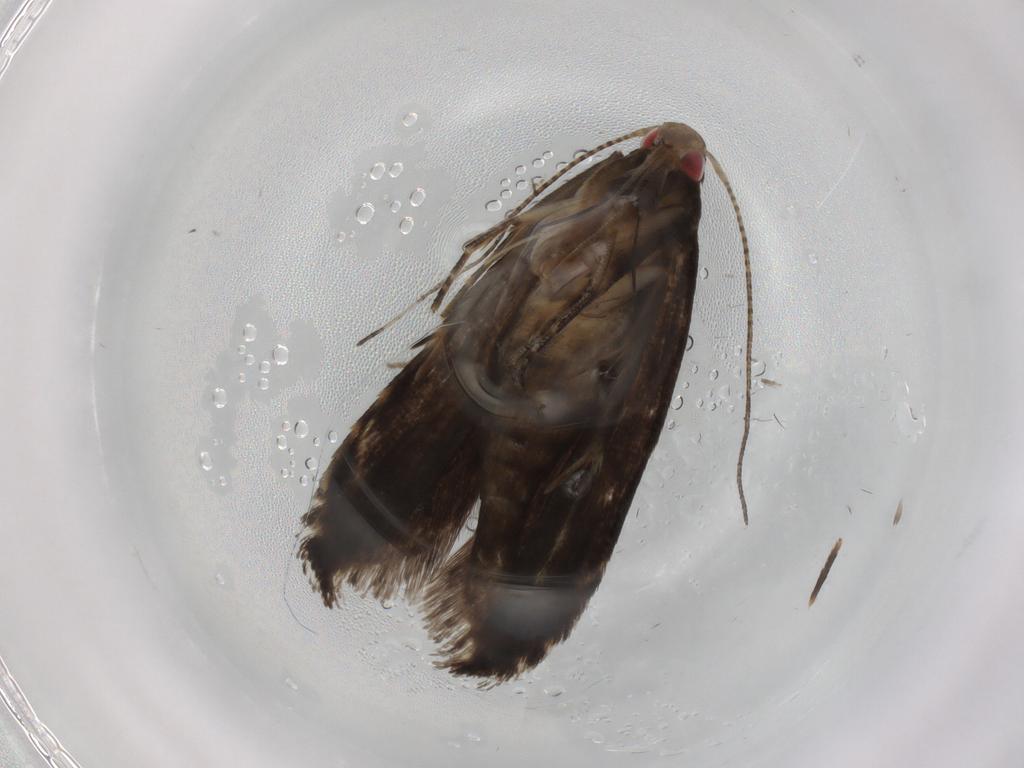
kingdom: Animalia
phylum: Arthropoda
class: Insecta
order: Lepidoptera
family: Gelechiidae
